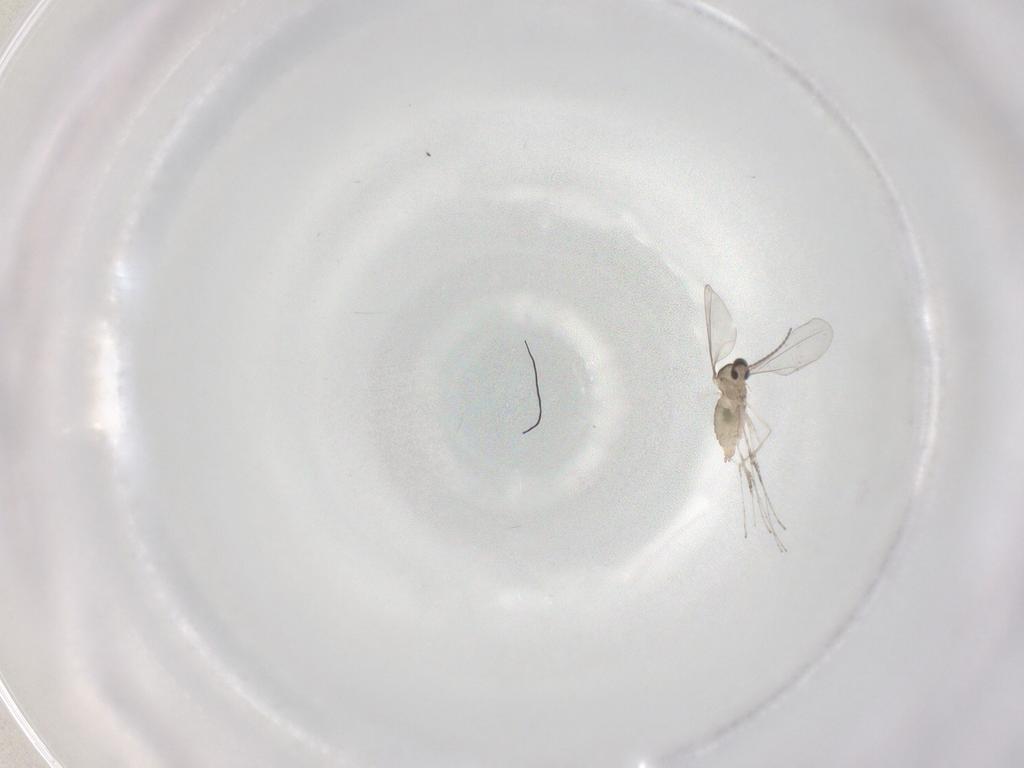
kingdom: Animalia
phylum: Arthropoda
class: Insecta
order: Diptera
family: Cecidomyiidae
